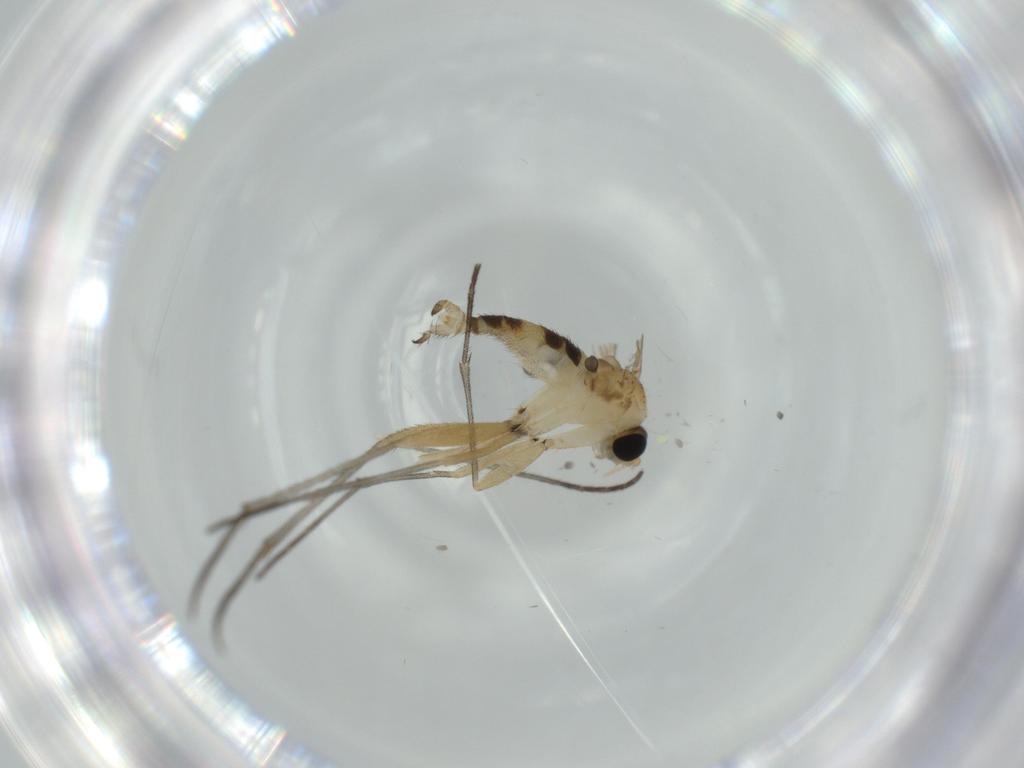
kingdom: Animalia
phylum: Arthropoda
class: Insecta
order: Diptera
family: Sciaridae
